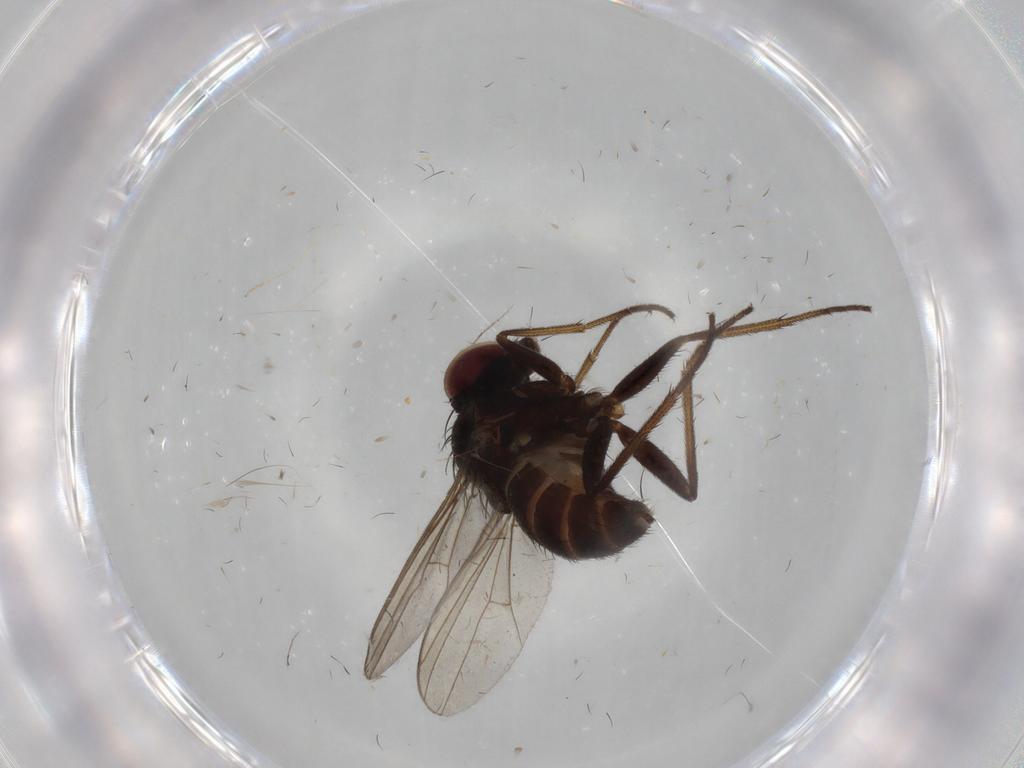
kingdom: Animalia
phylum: Arthropoda
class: Insecta
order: Diptera
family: Dolichopodidae
